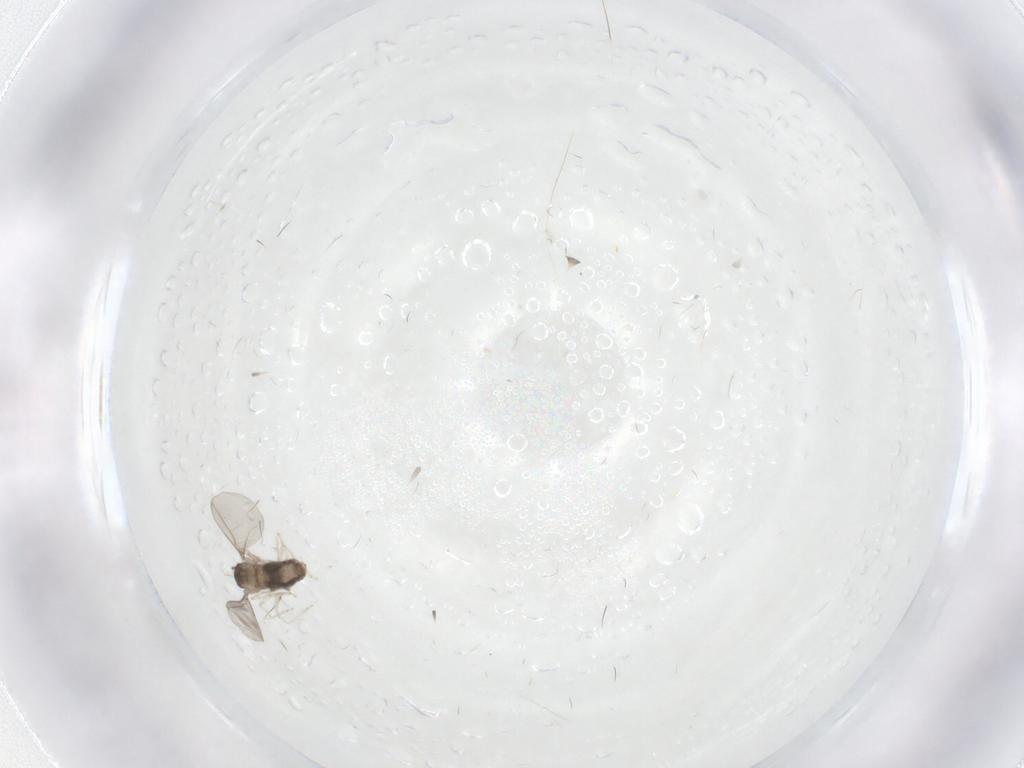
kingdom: Animalia
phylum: Arthropoda
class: Insecta
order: Diptera
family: Cecidomyiidae
